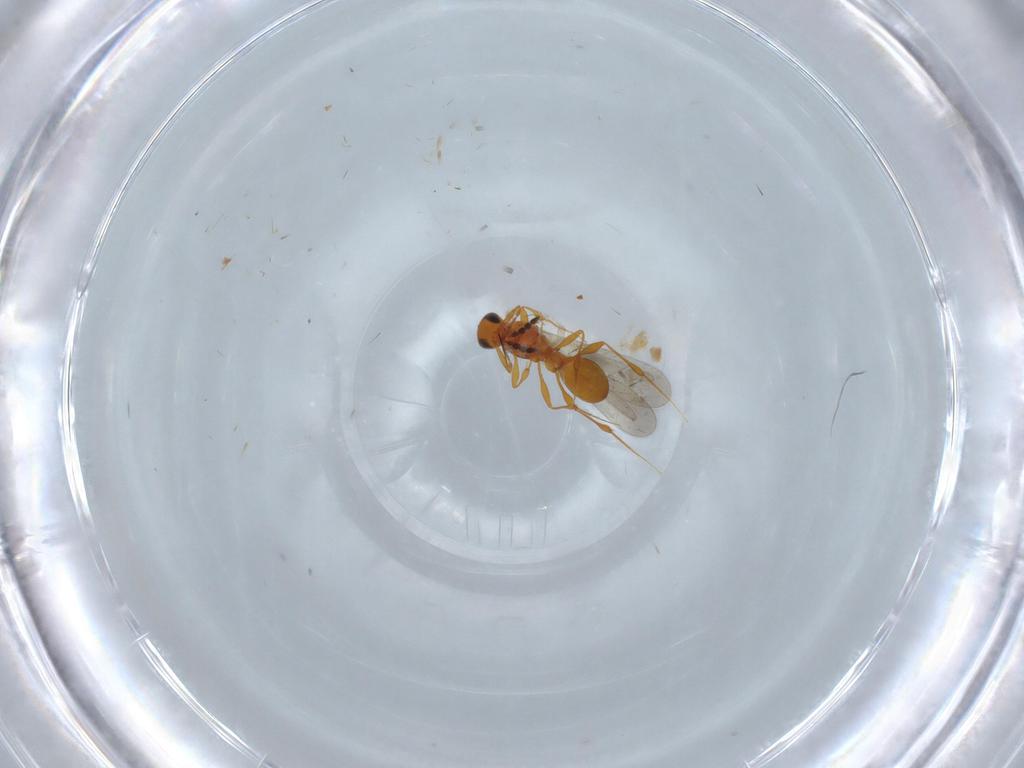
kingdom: Animalia
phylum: Arthropoda
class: Insecta
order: Hymenoptera
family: Platygastridae
